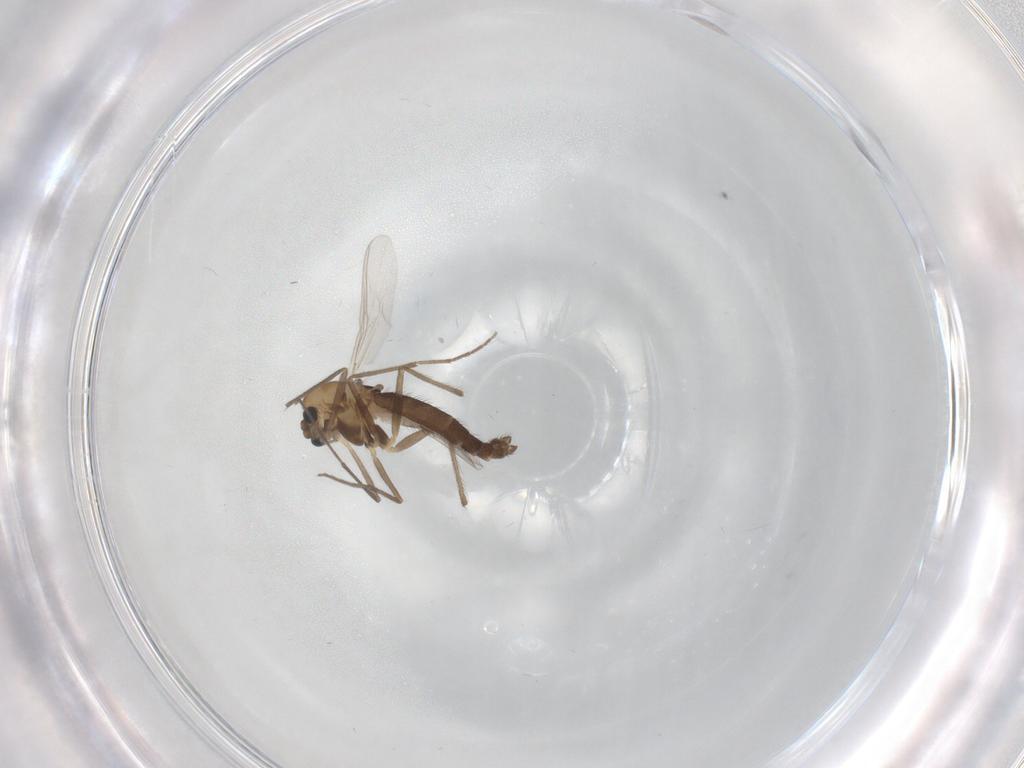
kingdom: Animalia
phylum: Arthropoda
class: Insecta
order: Diptera
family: Chironomidae
